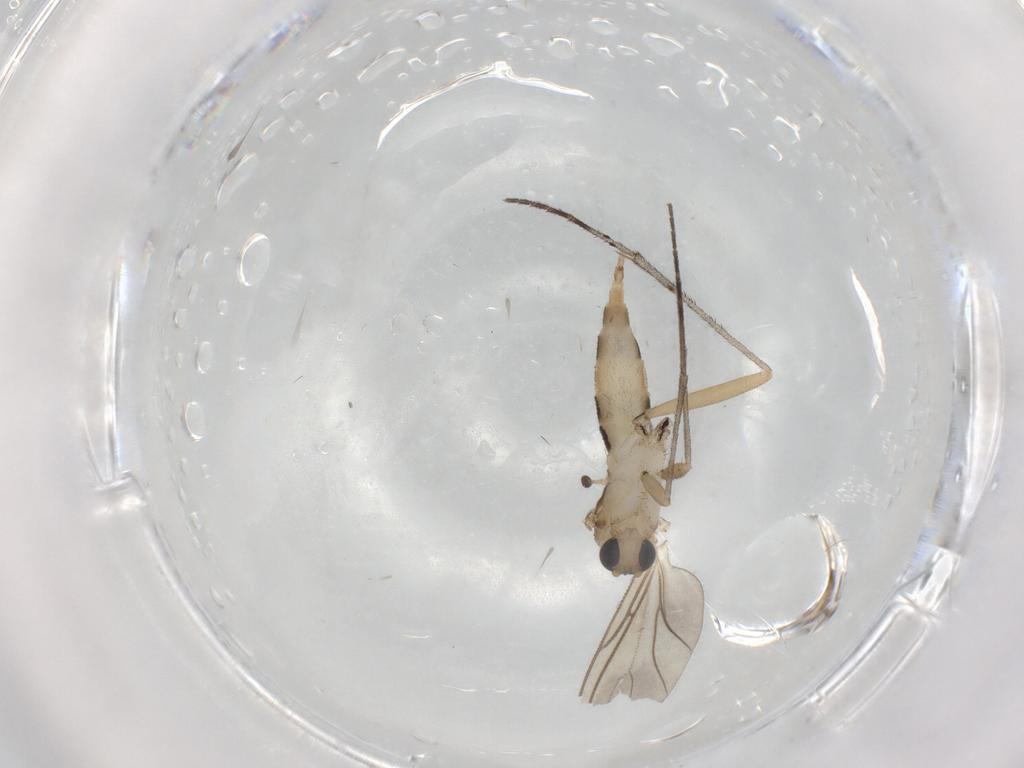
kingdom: Animalia
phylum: Arthropoda
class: Insecta
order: Diptera
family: Sciaridae
